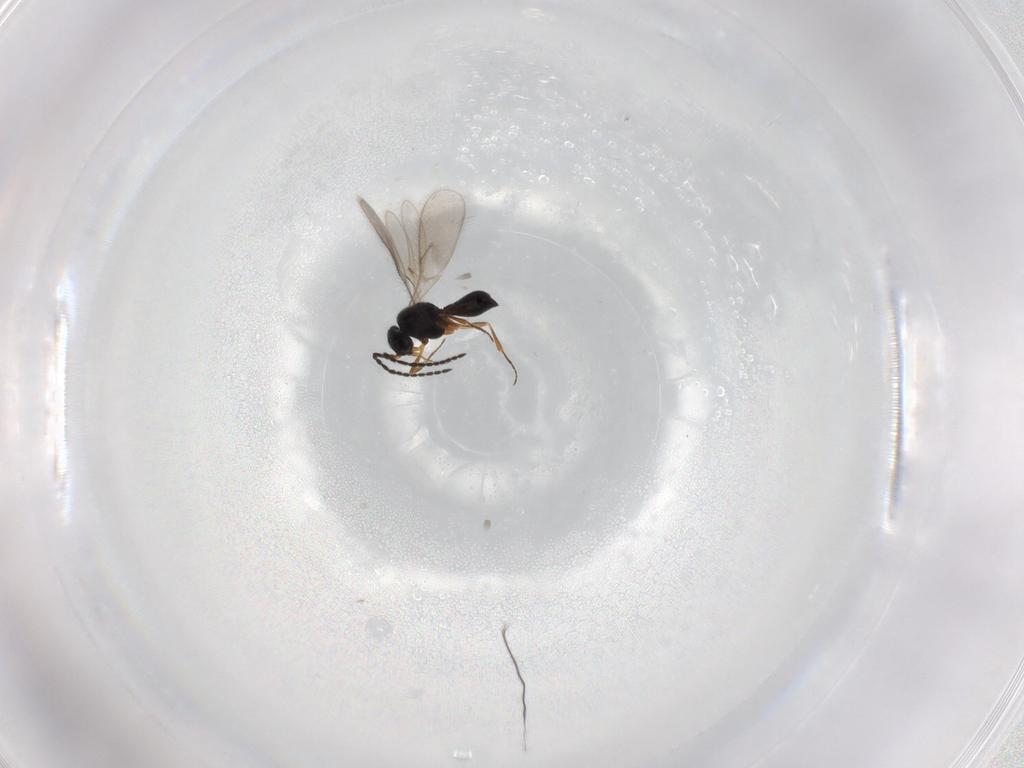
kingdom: Animalia
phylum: Arthropoda
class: Insecta
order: Hymenoptera
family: Scelionidae
